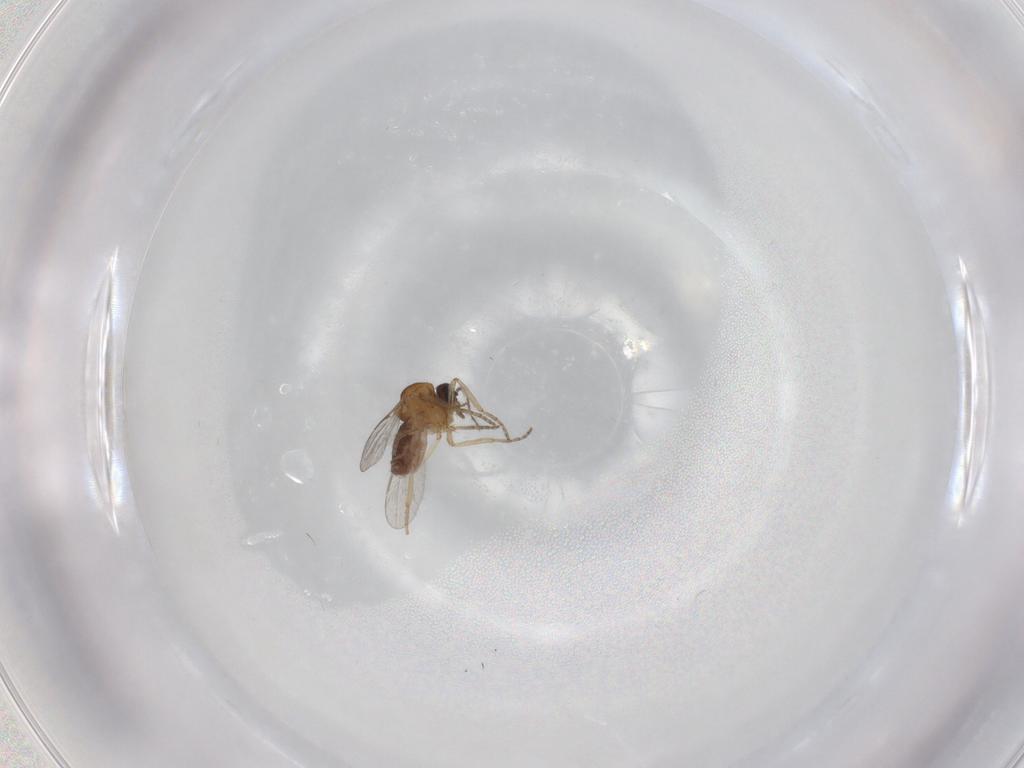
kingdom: Animalia
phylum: Arthropoda
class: Insecta
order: Diptera
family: Ceratopogonidae
